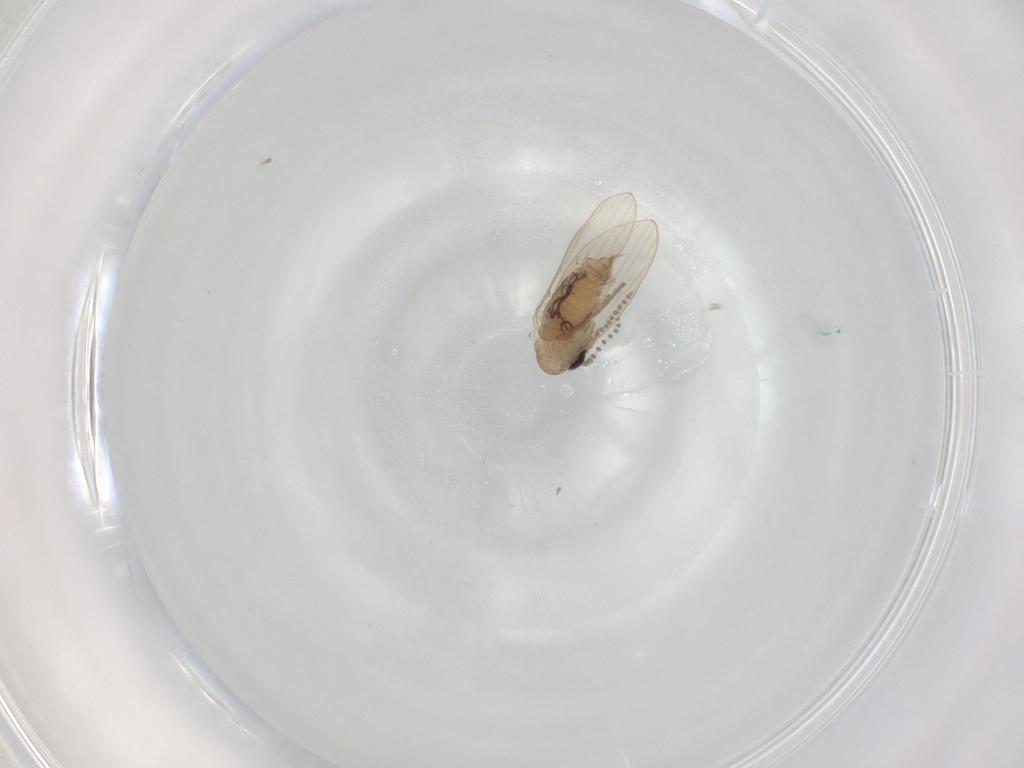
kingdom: Animalia
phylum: Arthropoda
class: Insecta
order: Diptera
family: Psychodidae
